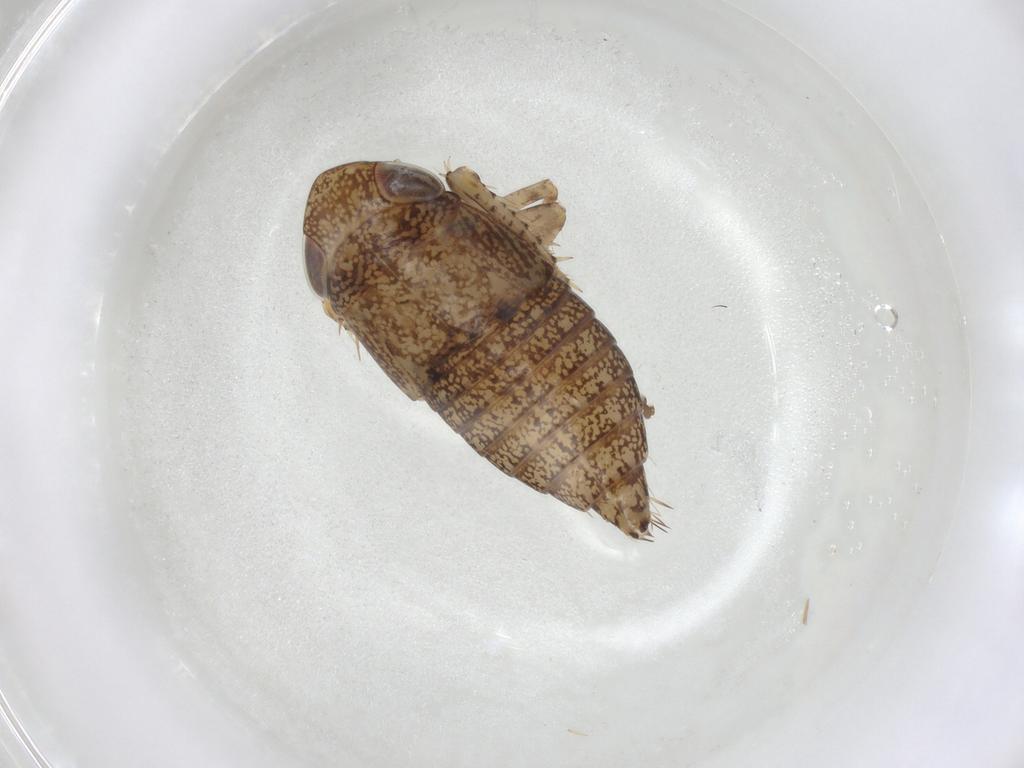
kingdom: Animalia
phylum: Arthropoda
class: Insecta
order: Hemiptera
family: Cicadellidae
